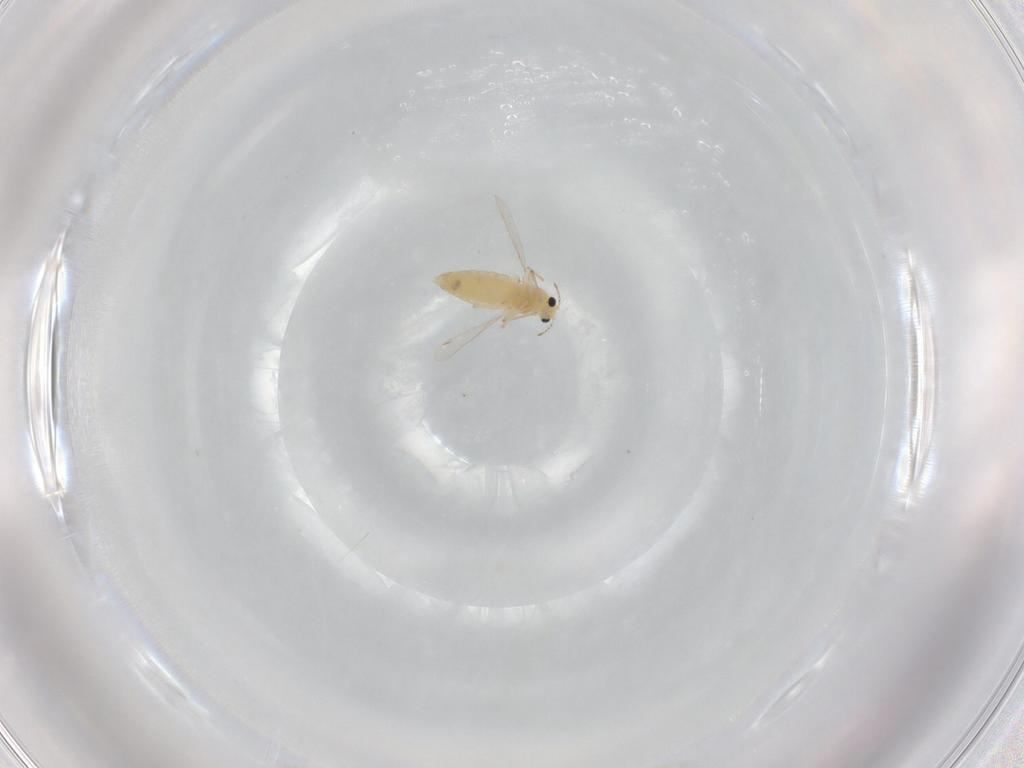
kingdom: Animalia
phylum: Arthropoda
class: Insecta
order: Diptera
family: Chironomidae
